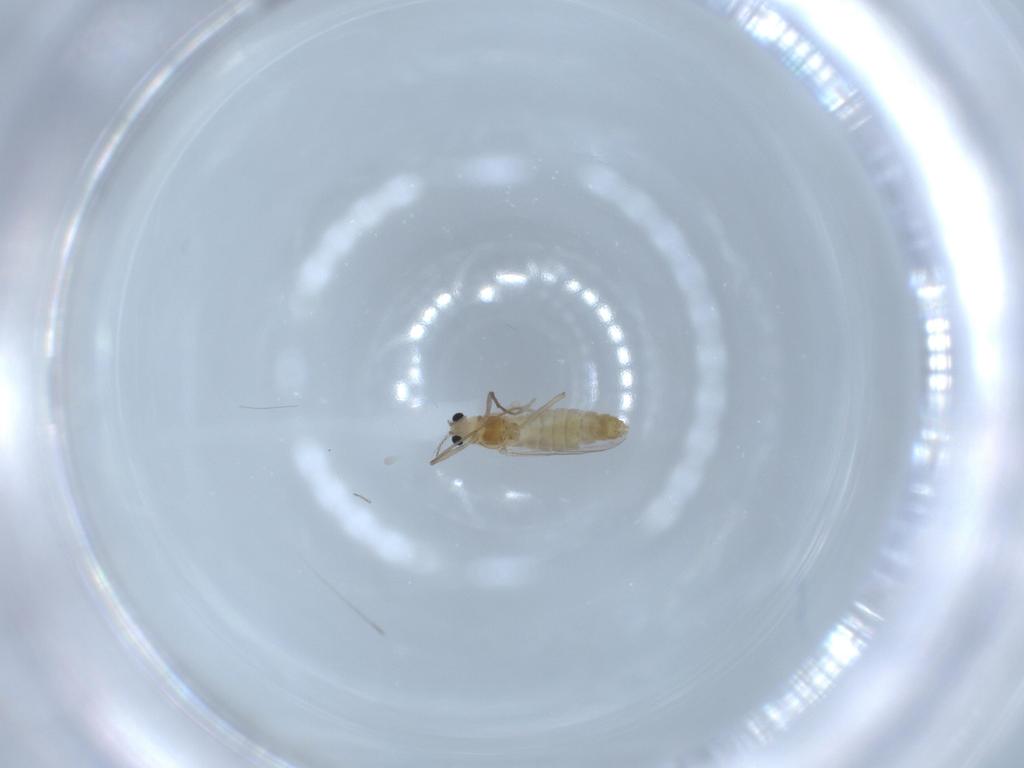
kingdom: Animalia
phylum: Arthropoda
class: Insecta
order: Diptera
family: Chironomidae
